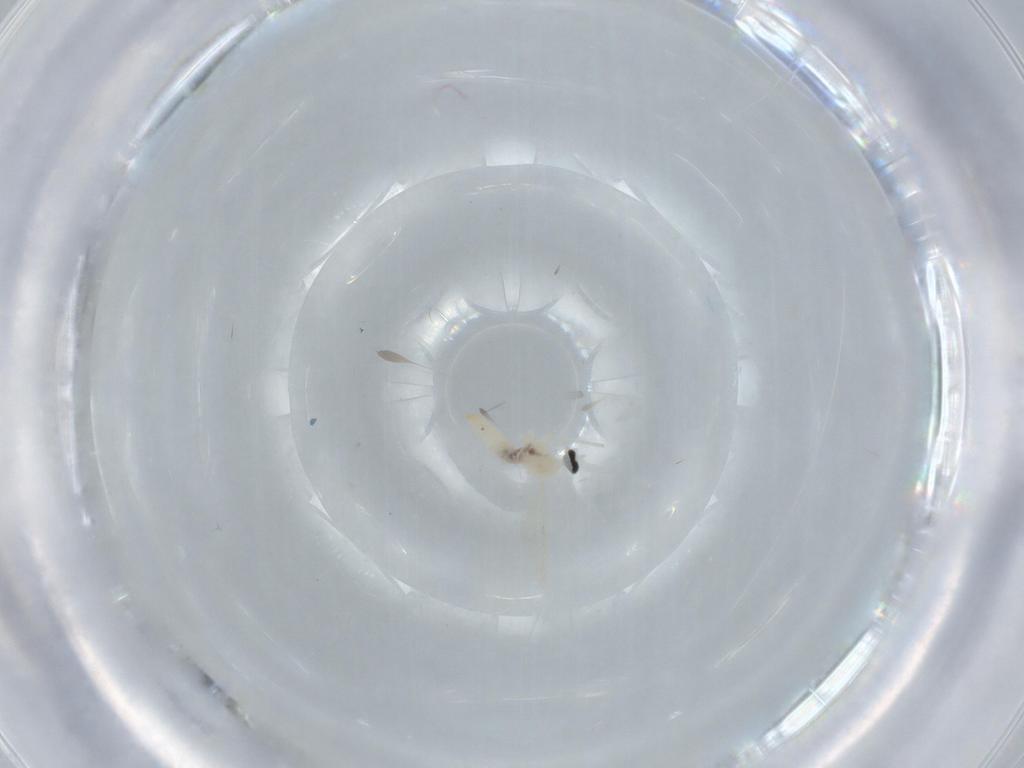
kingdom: Animalia
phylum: Arthropoda
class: Insecta
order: Diptera
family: Cecidomyiidae
